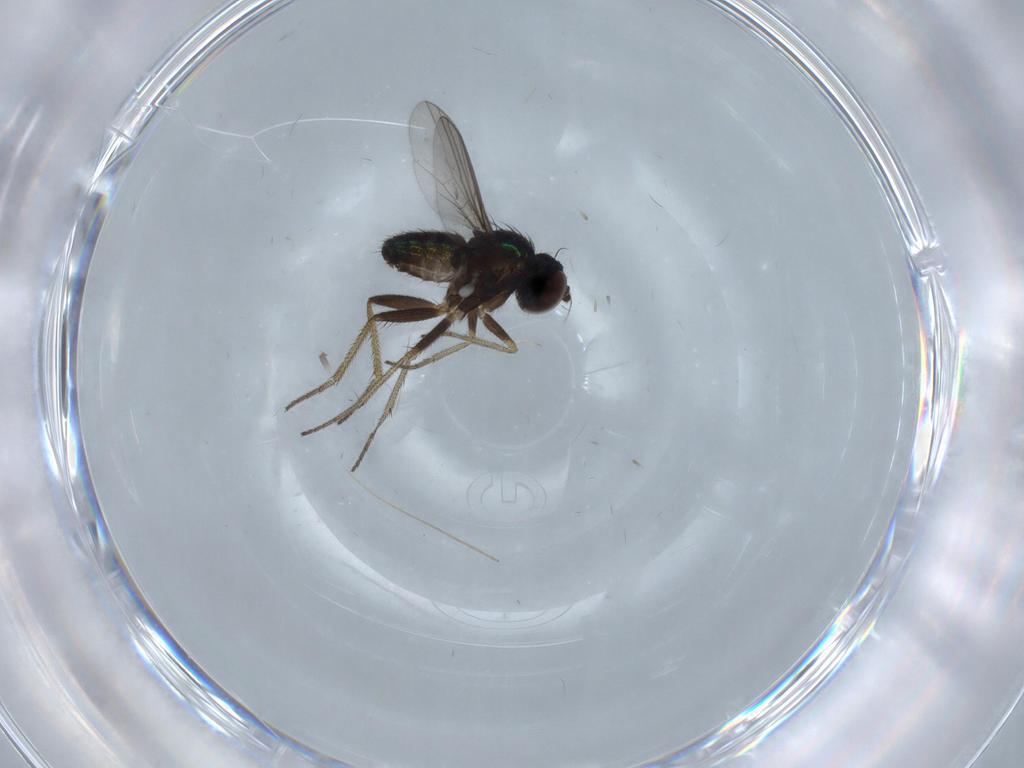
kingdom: Animalia
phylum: Arthropoda
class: Insecta
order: Diptera
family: Chironomidae
